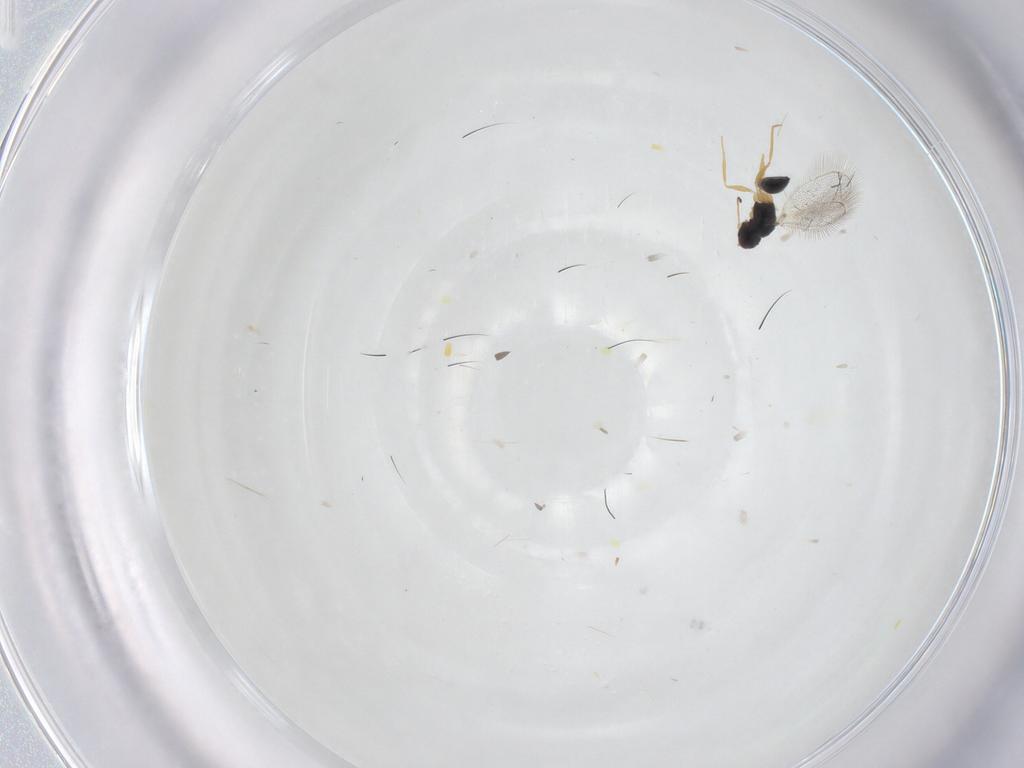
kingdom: Animalia
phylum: Arthropoda
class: Insecta
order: Hymenoptera
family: Mymaridae
